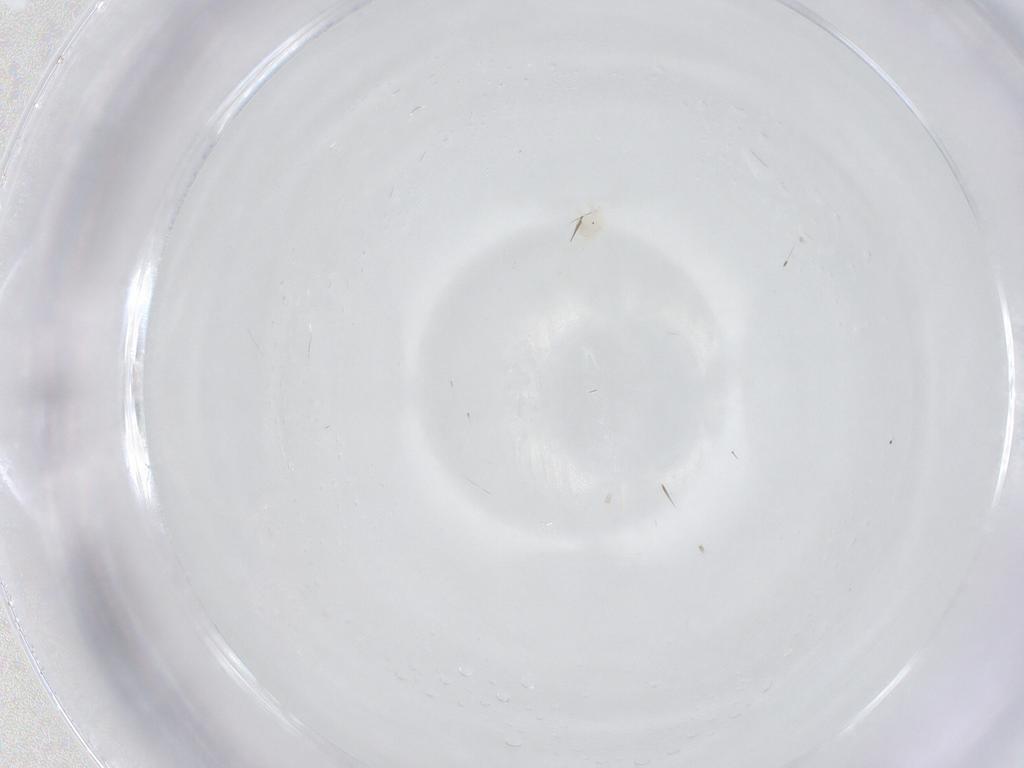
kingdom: Animalia
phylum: Arthropoda
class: Arachnida
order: Trombidiformes
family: Anystidae
